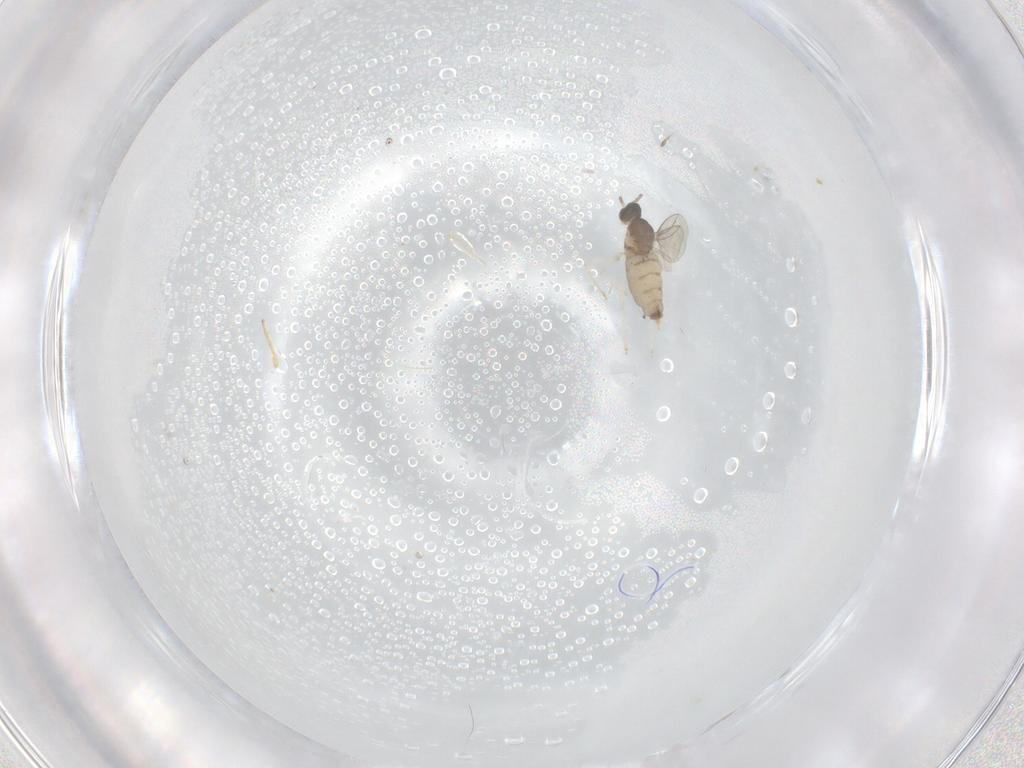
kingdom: Animalia
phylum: Arthropoda
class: Insecta
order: Diptera
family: Cecidomyiidae
